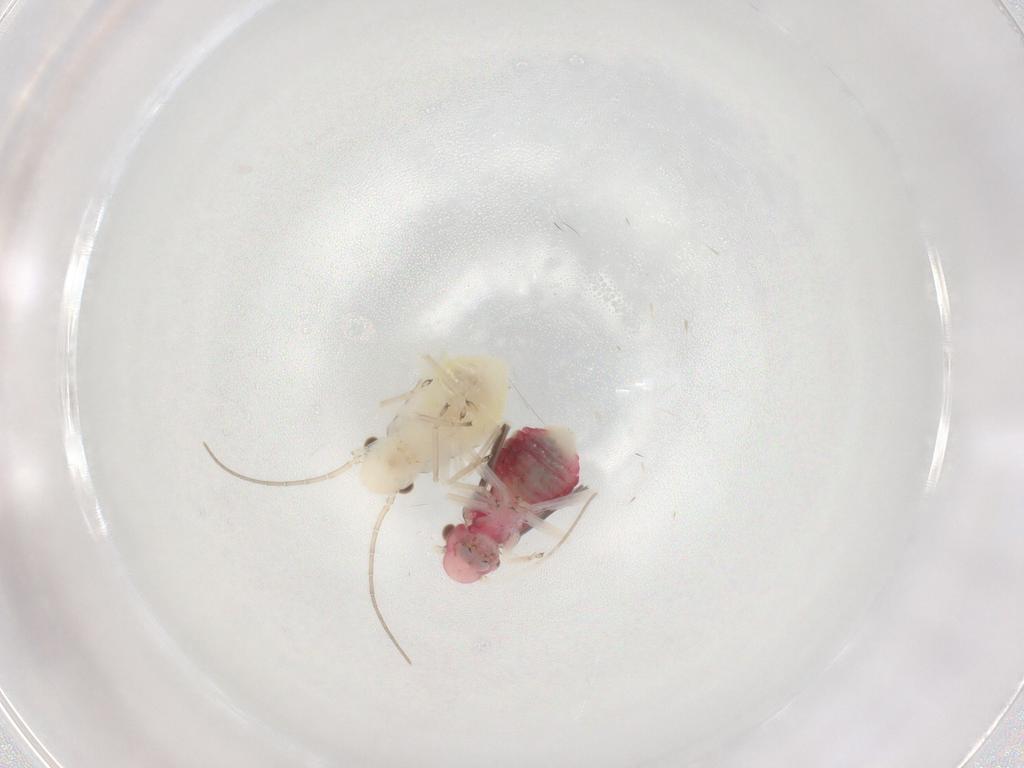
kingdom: Animalia
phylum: Arthropoda
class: Insecta
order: Psocodea
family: Caeciliusidae
